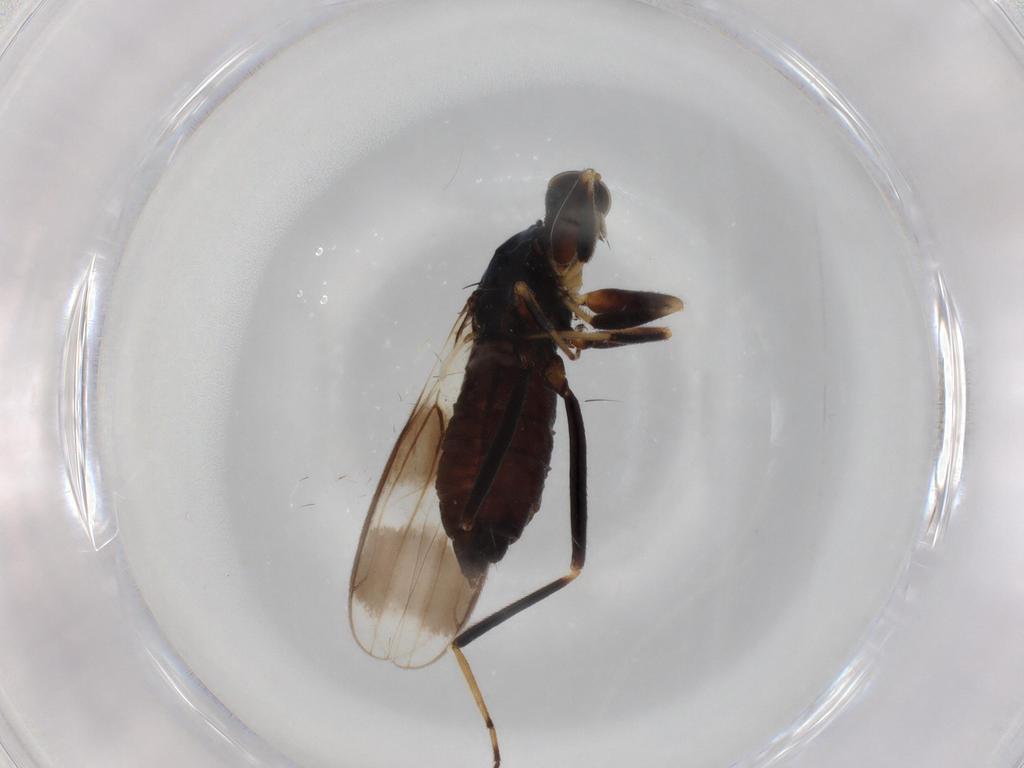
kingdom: Animalia
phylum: Arthropoda
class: Insecta
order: Diptera
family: Hybotidae
